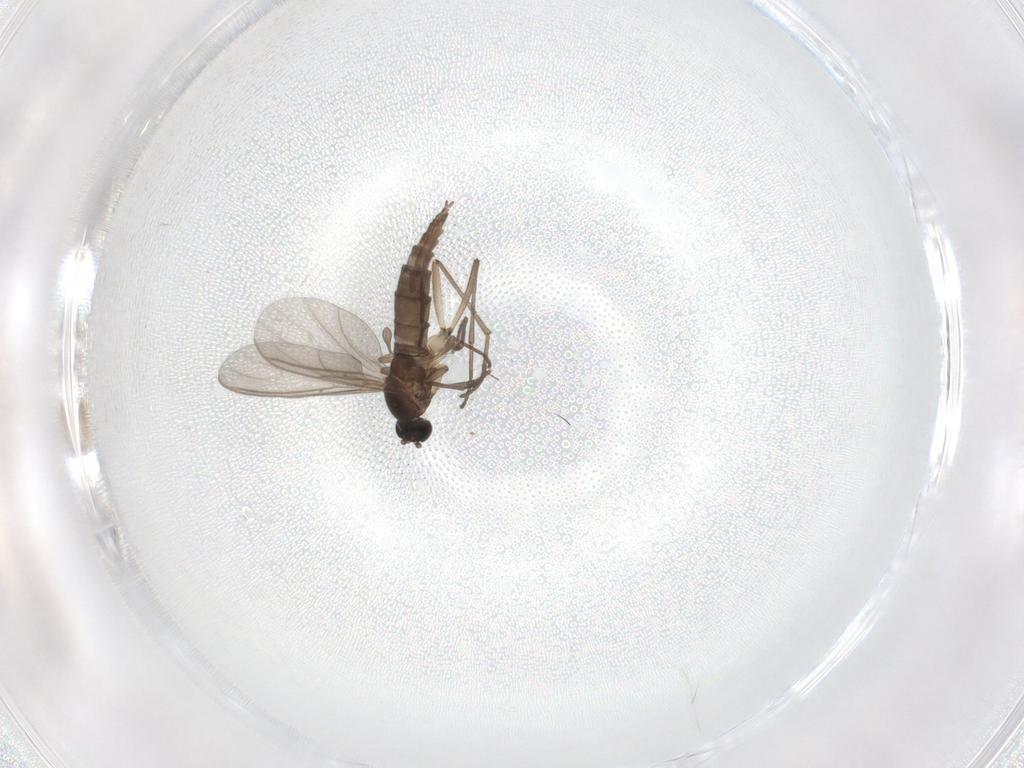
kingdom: Animalia
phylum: Arthropoda
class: Insecta
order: Diptera
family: Sciaridae
